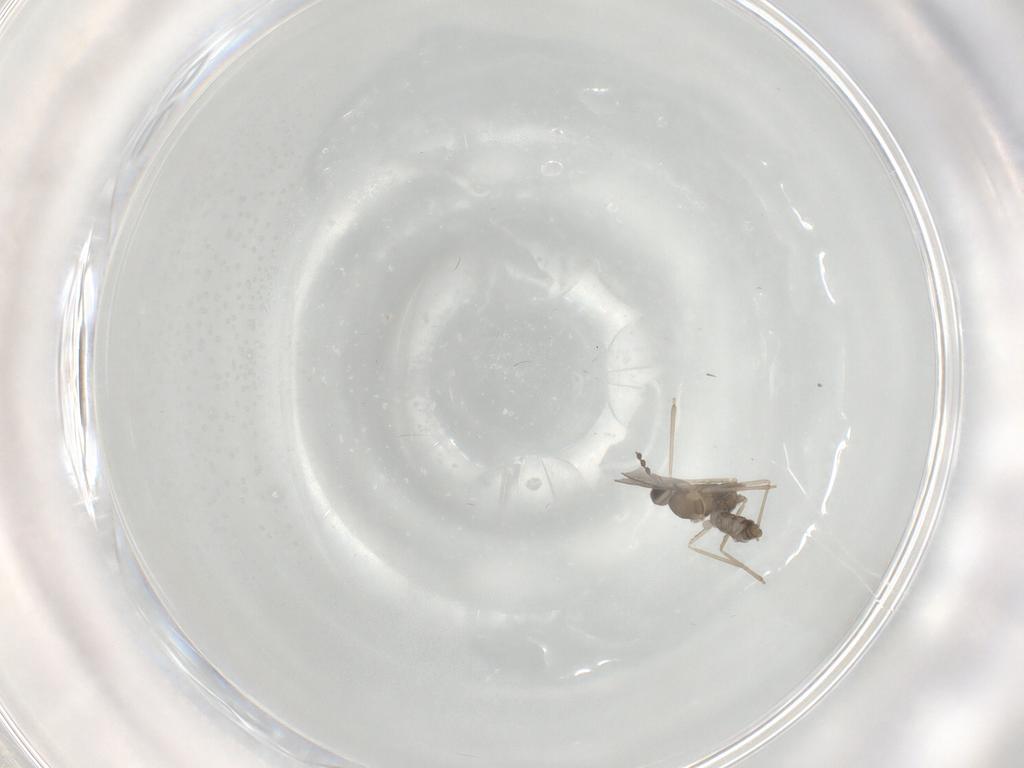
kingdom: Animalia
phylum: Arthropoda
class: Insecta
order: Diptera
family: Cecidomyiidae
